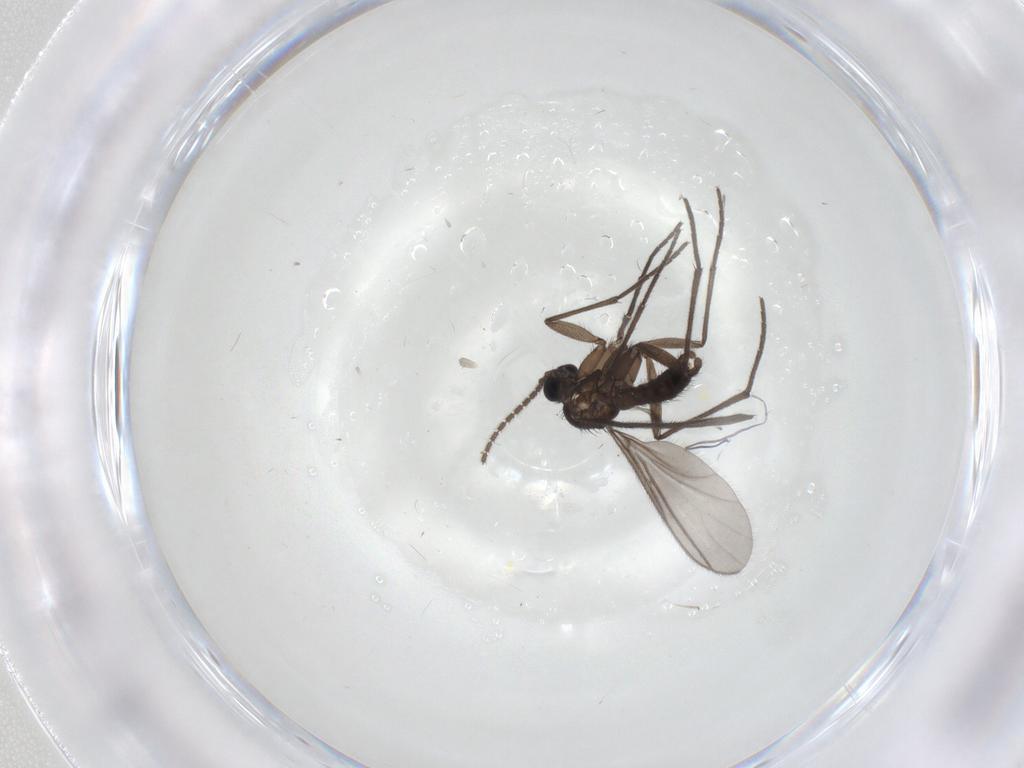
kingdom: Animalia
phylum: Arthropoda
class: Insecta
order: Diptera
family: Sciaridae
